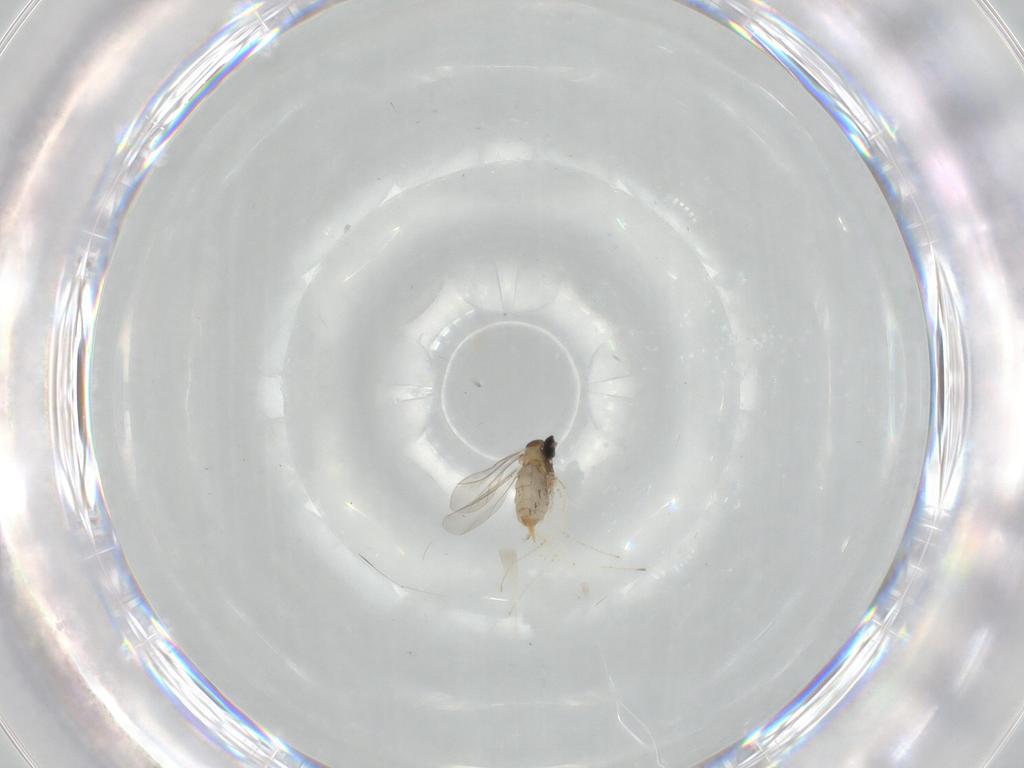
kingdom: Animalia
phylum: Arthropoda
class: Insecta
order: Diptera
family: Cecidomyiidae
